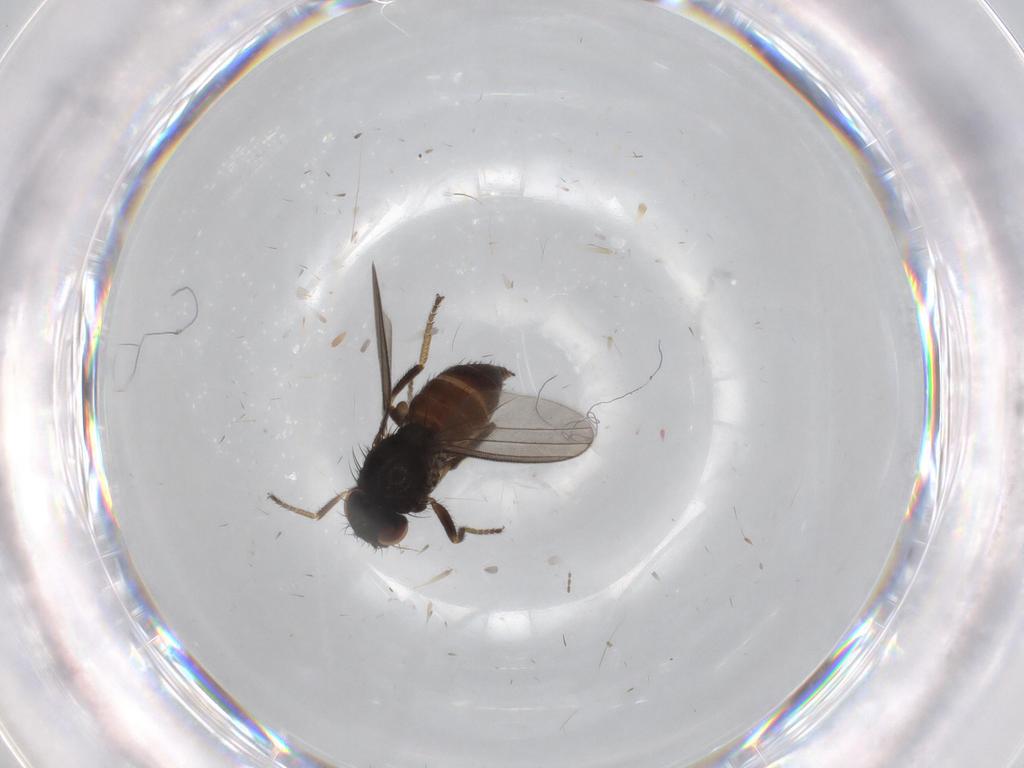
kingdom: Animalia
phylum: Arthropoda
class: Insecta
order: Diptera
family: Milichiidae
